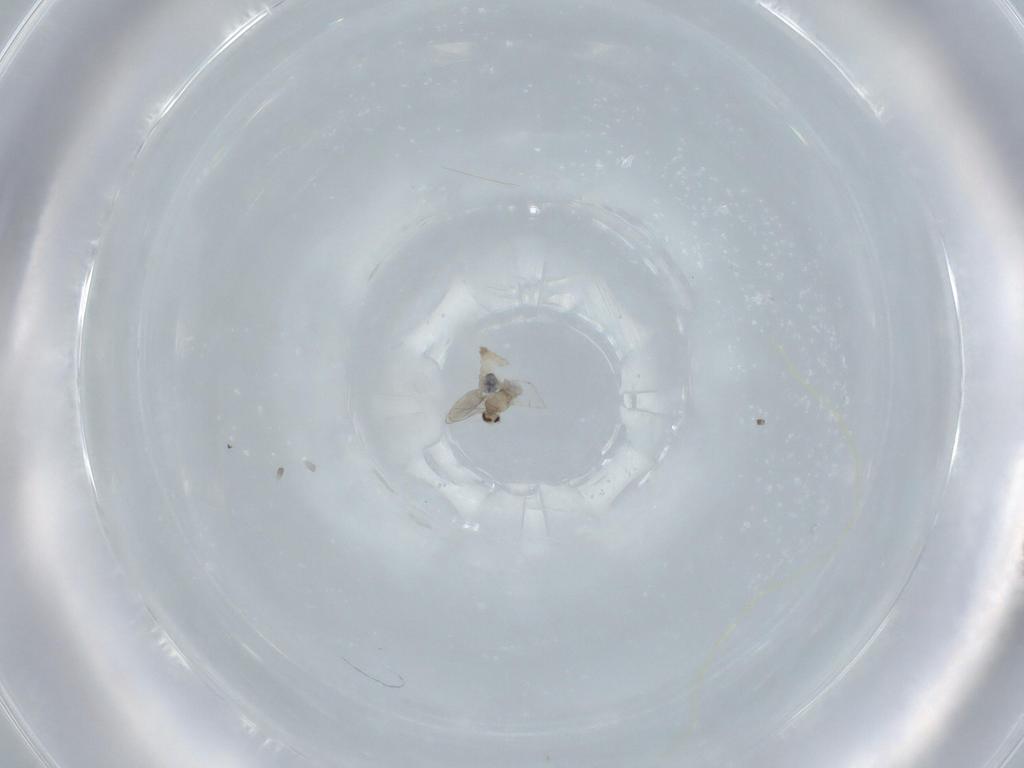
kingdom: Animalia
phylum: Arthropoda
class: Insecta
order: Diptera
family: Cecidomyiidae
